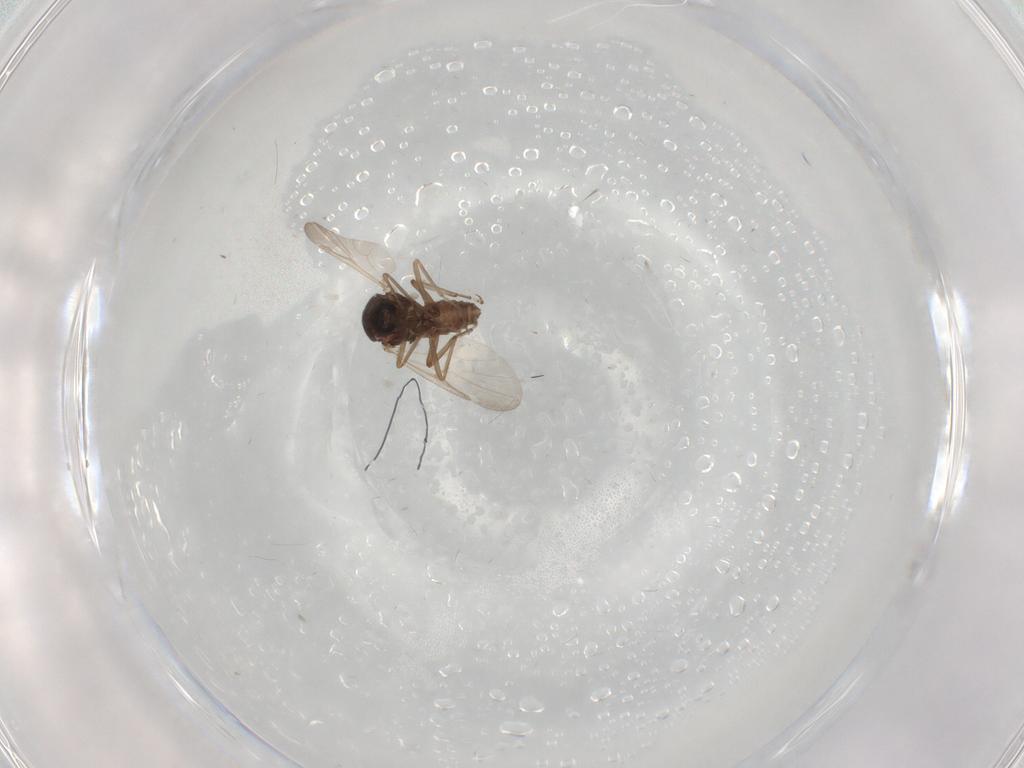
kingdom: Animalia
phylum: Arthropoda
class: Insecta
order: Diptera
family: Ceratopogonidae
